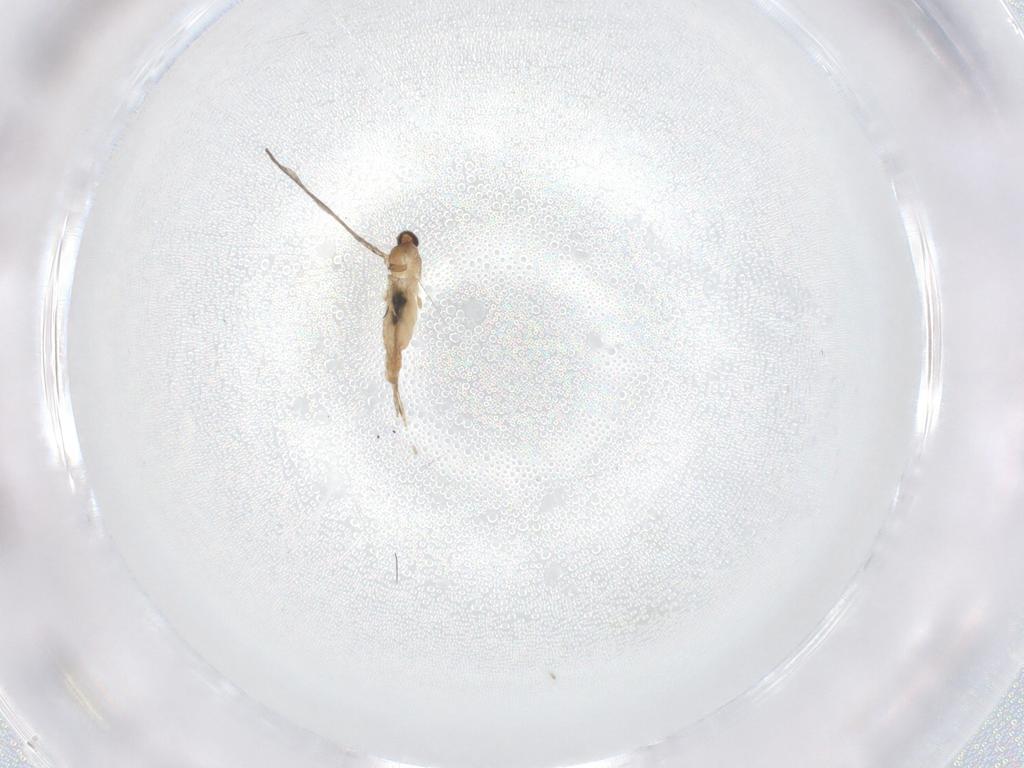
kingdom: Animalia
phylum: Arthropoda
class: Insecta
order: Diptera
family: Cecidomyiidae
